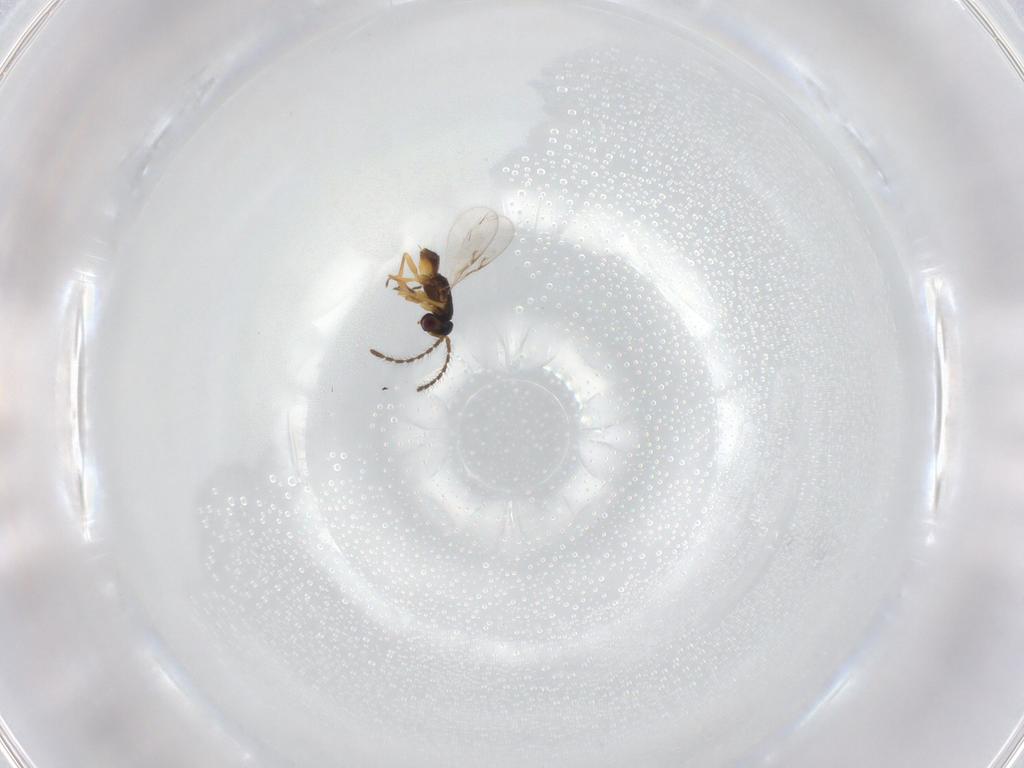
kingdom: Animalia
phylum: Arthropoda
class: Insecta
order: Hymenoptera
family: Encyrtidae
